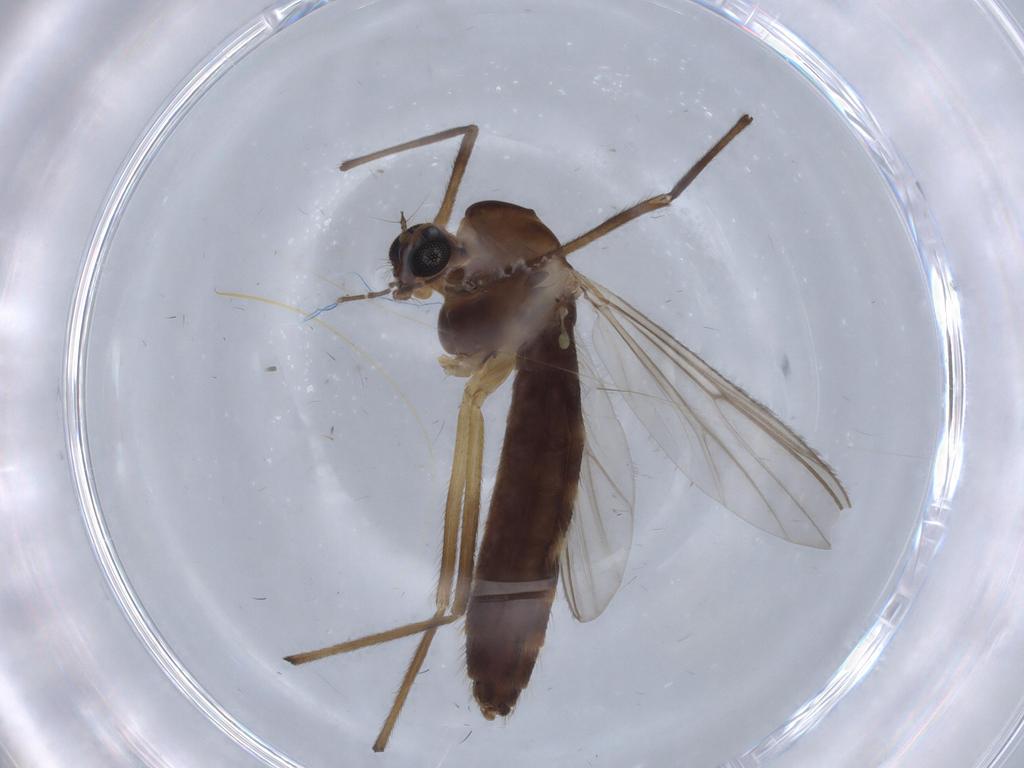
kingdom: Animalia
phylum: Arthropoda
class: Insecta
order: Diptera
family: Chironomidae
